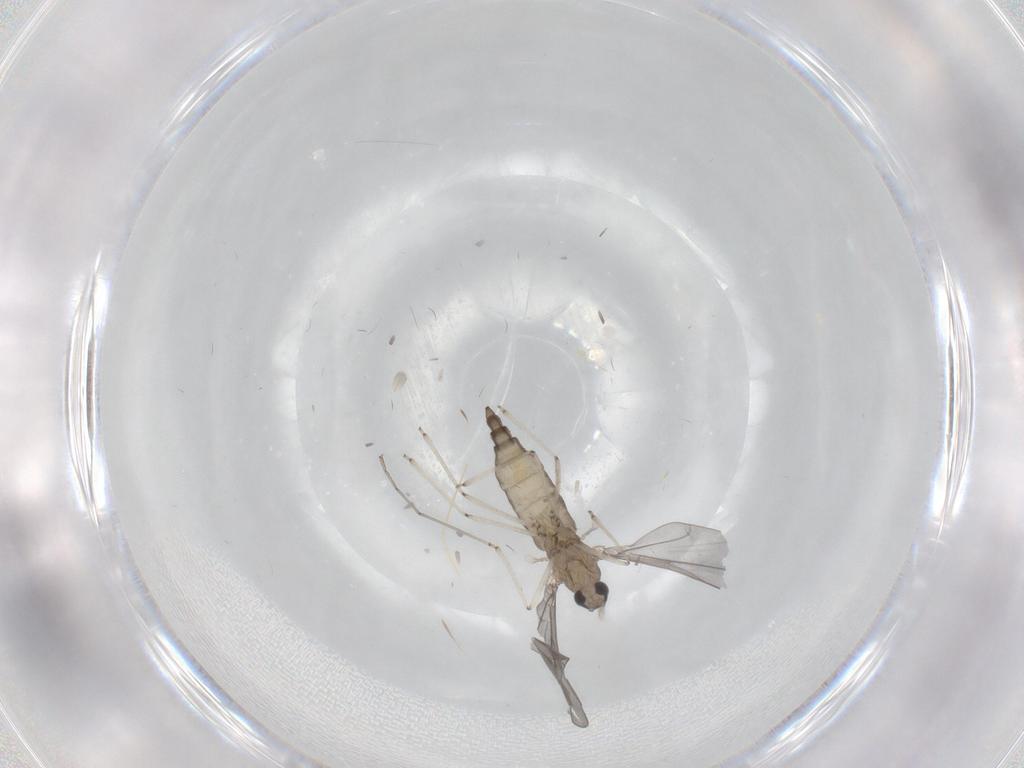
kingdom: Animalia
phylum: Arthropoda
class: Insecta
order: Diptera
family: Cecidomyiidae
